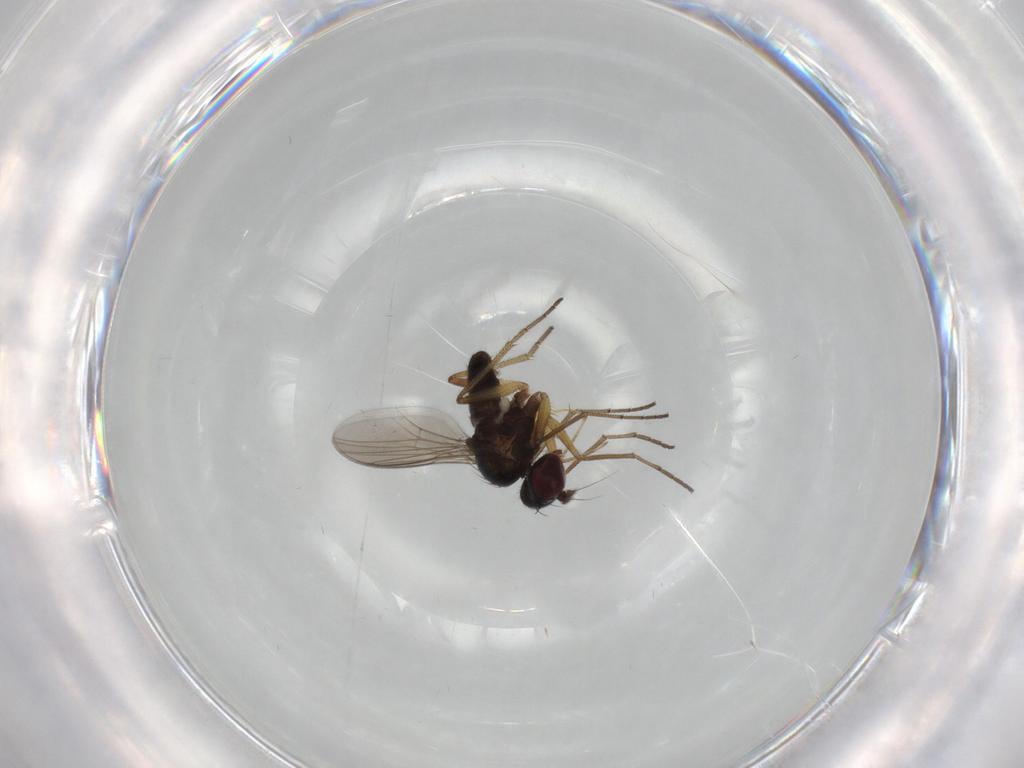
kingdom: Animalia
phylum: Arthropoda
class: Insecta
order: Diptera
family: Dolichopodidae
